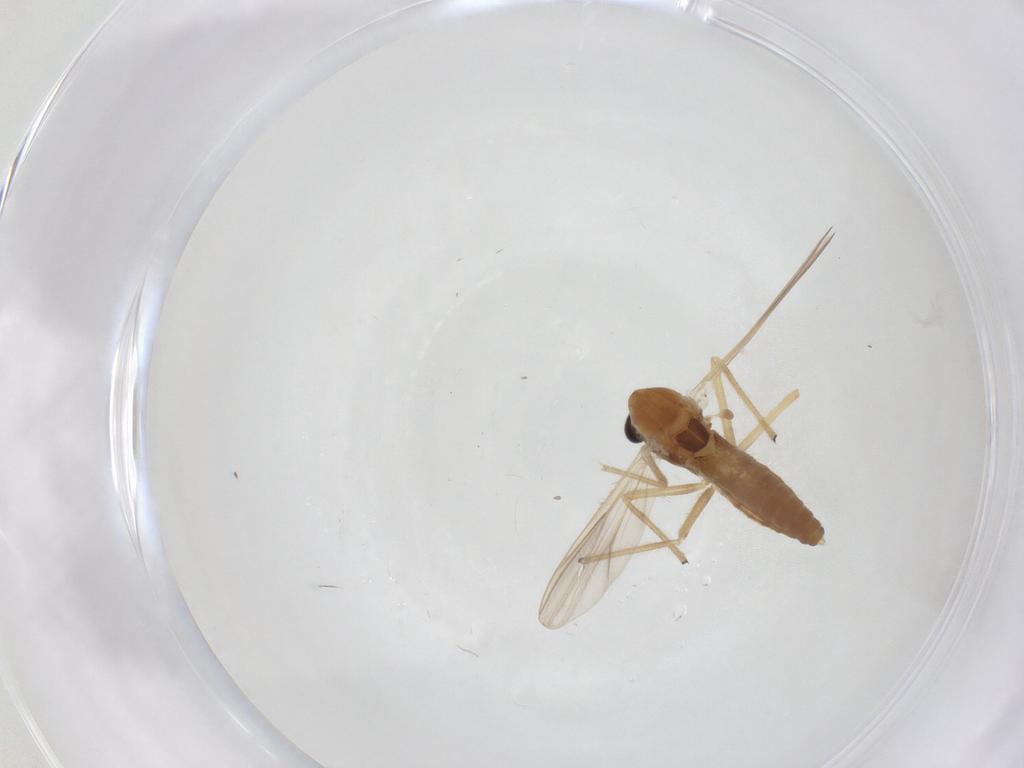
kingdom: Animalia
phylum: Arthropoda
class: Insecta
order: Diptera
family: Chironomidae
